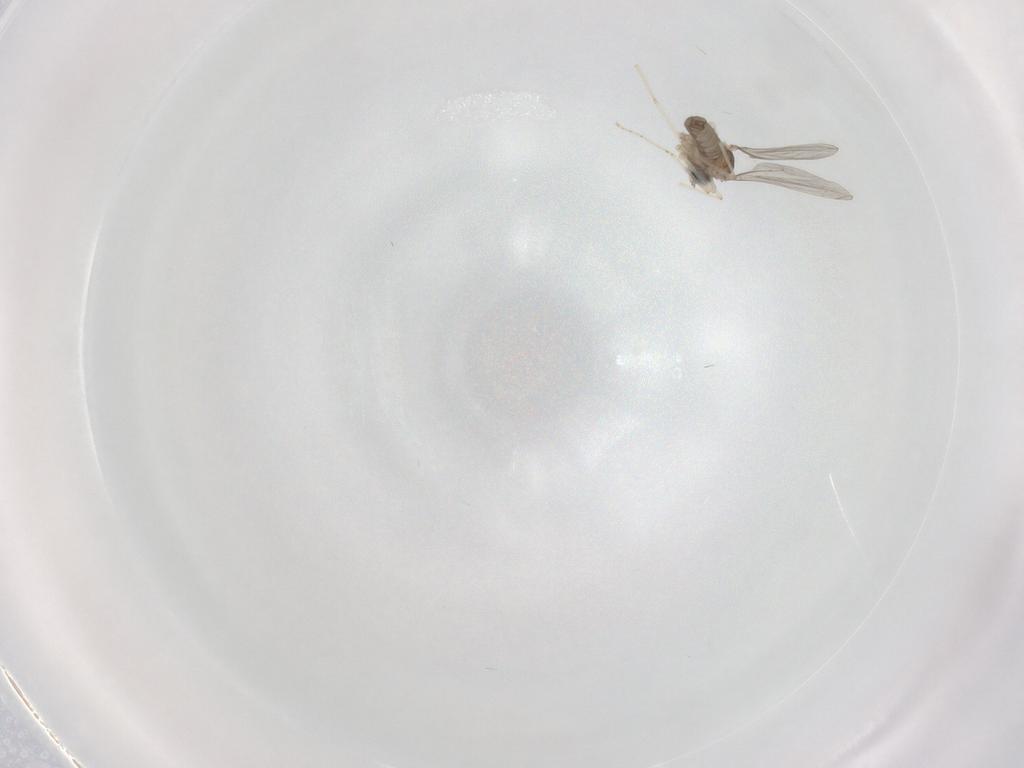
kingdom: Animalia
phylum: Arthropoda
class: Insecta
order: Diptera
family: Cecidomyiidae
